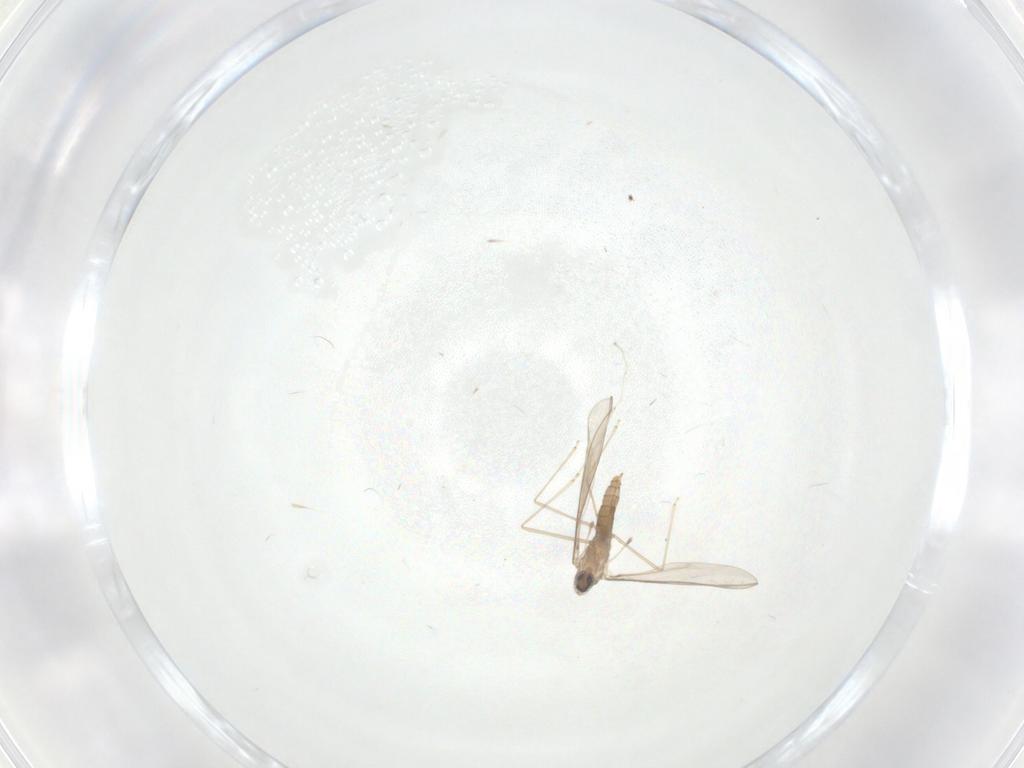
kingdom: Animalia
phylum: Arthropoda
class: Insecta
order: Diptera
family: Cecidomyiidae
